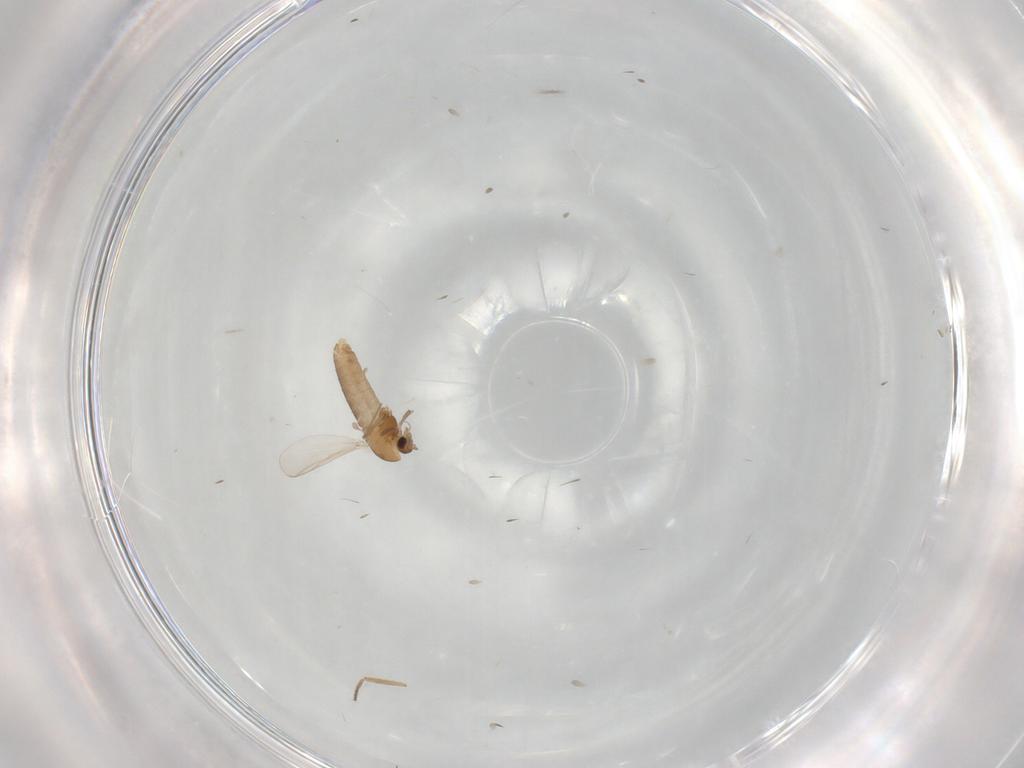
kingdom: Animalia
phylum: Arthropoda
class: Insecta
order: Diptera
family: Chironomidae
